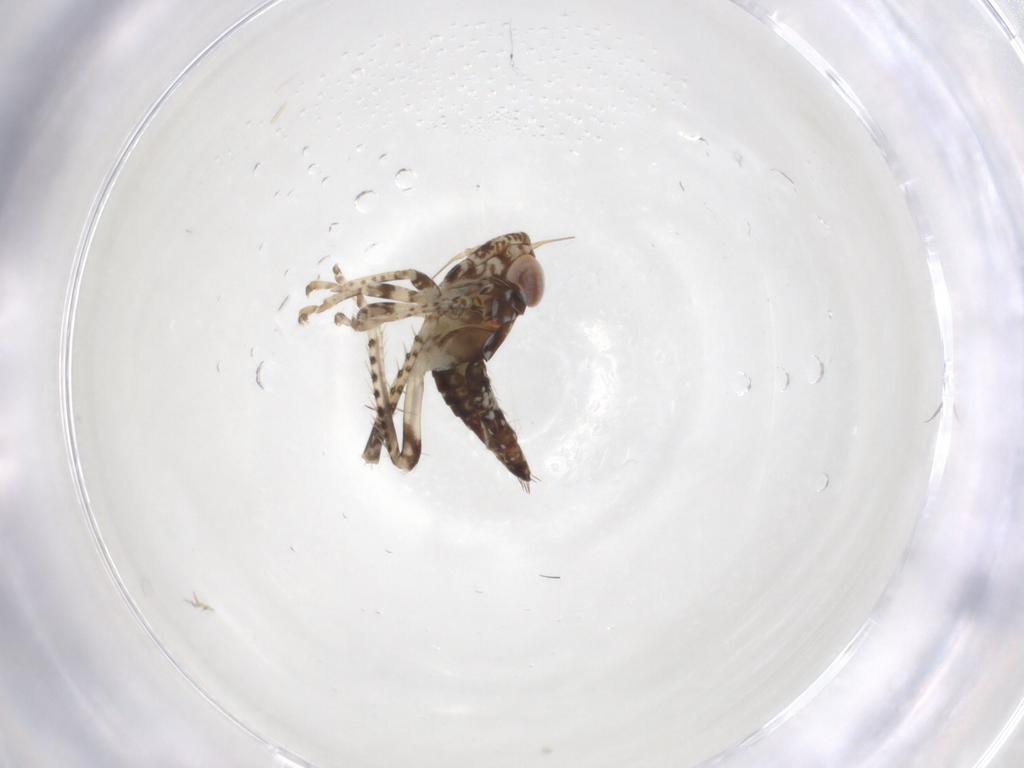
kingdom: Animalia
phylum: Arthropoda
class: Insecta
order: Hemiptera
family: Cicadellidae
